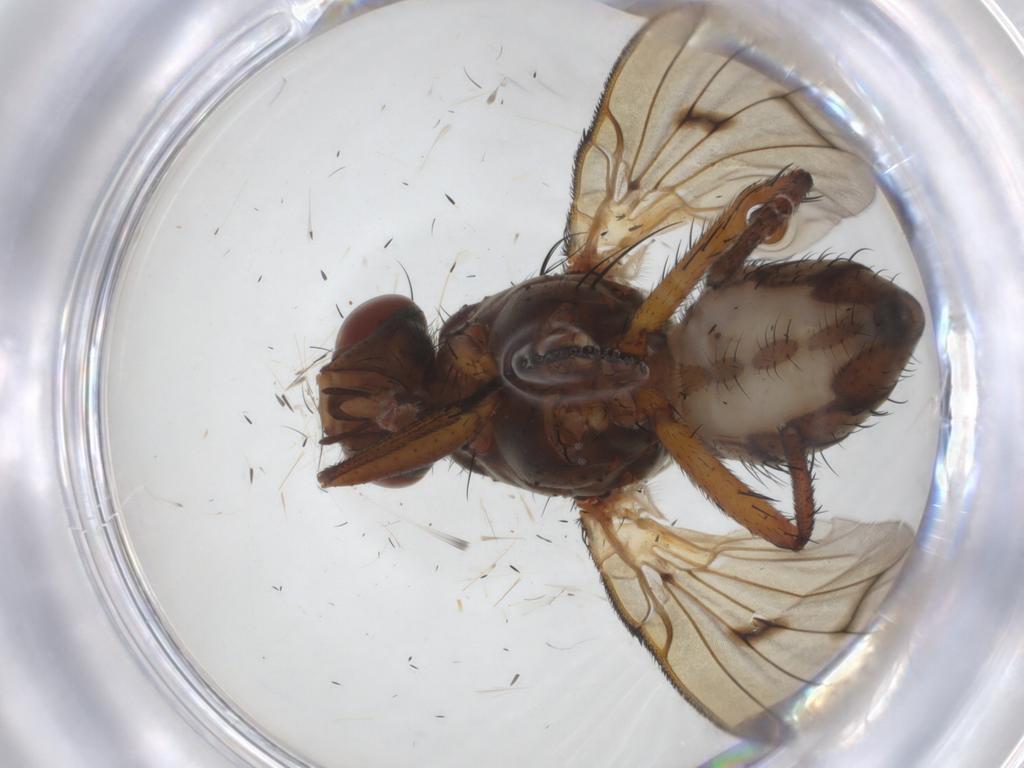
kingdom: Animalia
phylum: Arthropoda
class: Insecta
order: Diptera
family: Anthomyiidae
